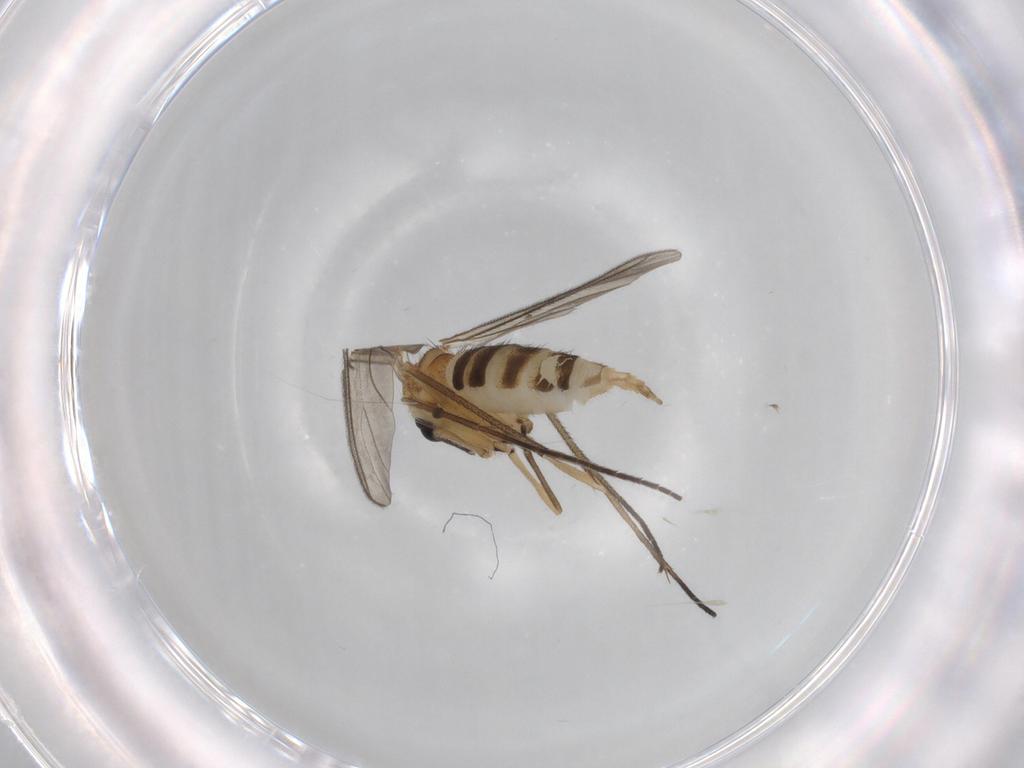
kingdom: Animalia
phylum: Arthropoda
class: Insecta
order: Diptera
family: Sciaridae
